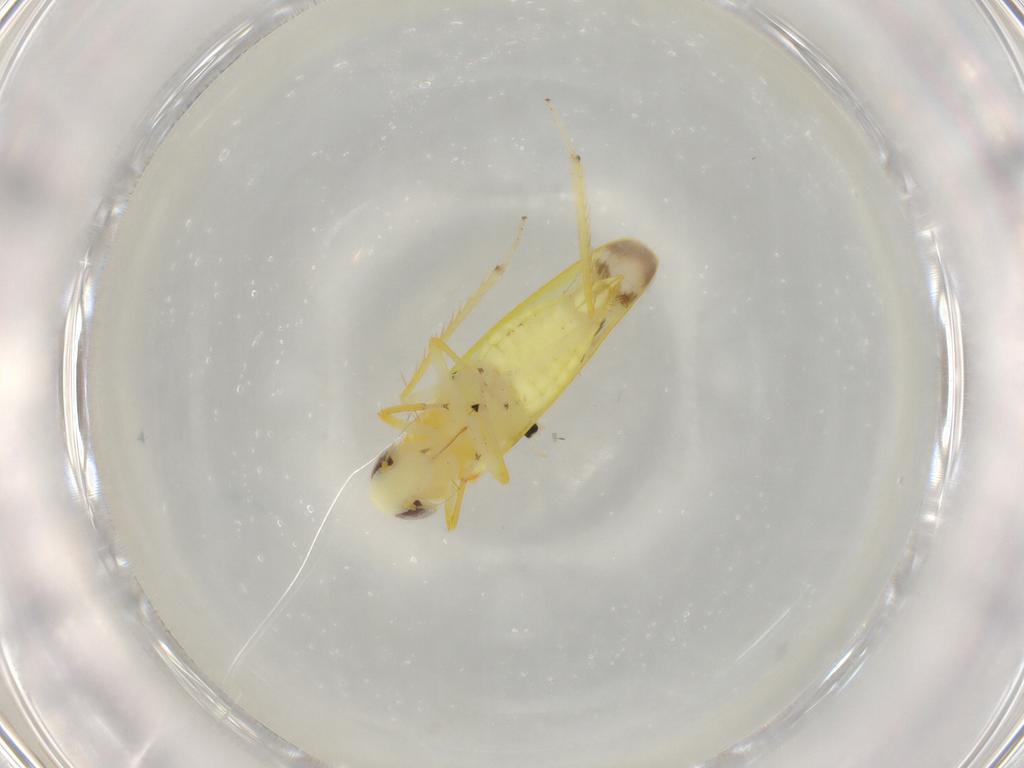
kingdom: Animalia
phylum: Arthropoda
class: Insecta
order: Hemiptera
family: Cicadellidae
